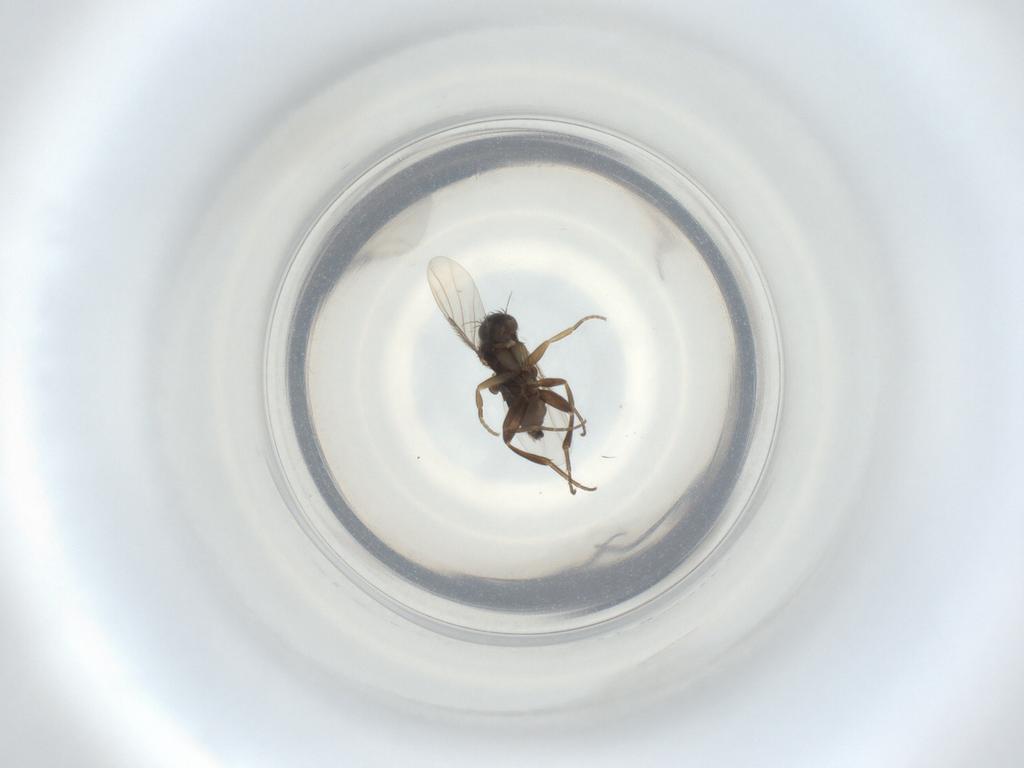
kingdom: Animalia
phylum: Arthropoda
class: Insecta
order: Diptera
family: Phoridae
